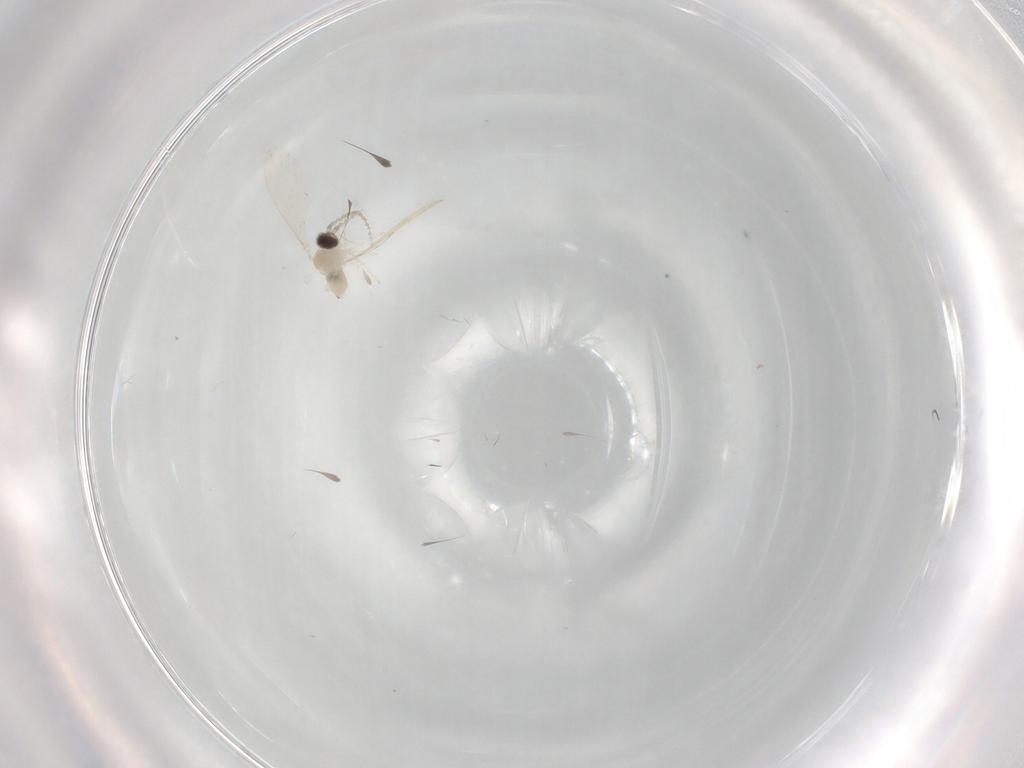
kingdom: Animalia
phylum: Arthropoda
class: Insecta
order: Diptera
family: Cecidomyiidae
